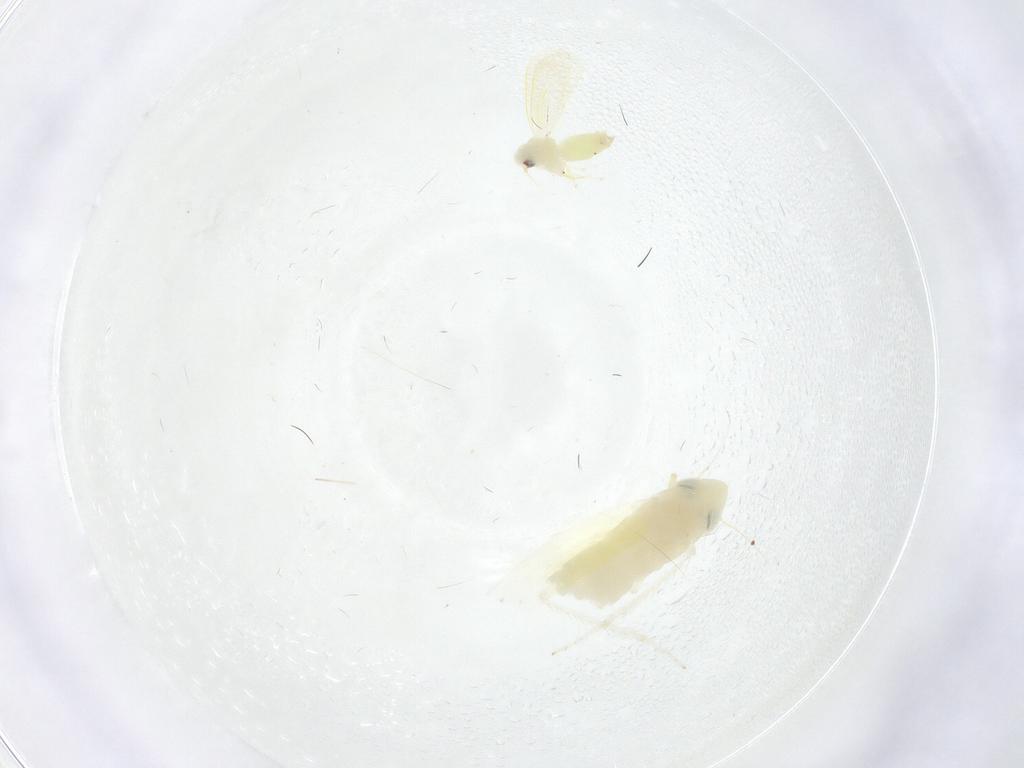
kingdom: Animalia
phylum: Arthropoda
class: Insecta
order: Hemiptera
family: Cicadellidae
